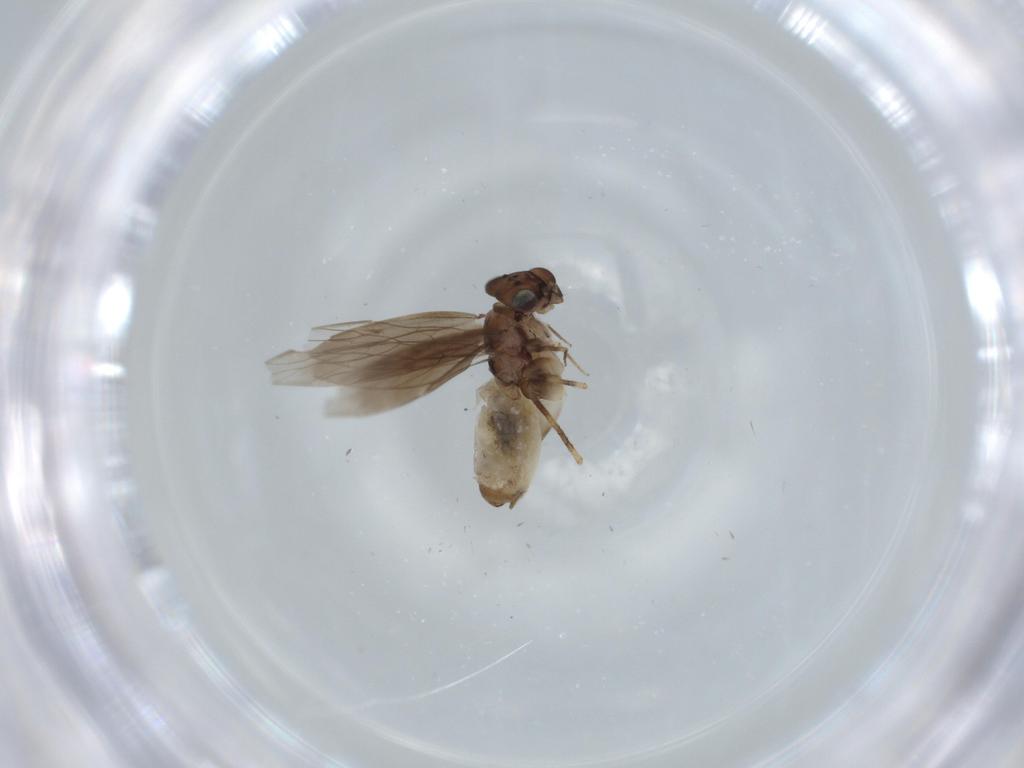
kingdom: Animalia
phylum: Arthropoda
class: Insecta
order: Psocodea
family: Lepidopsocidae
